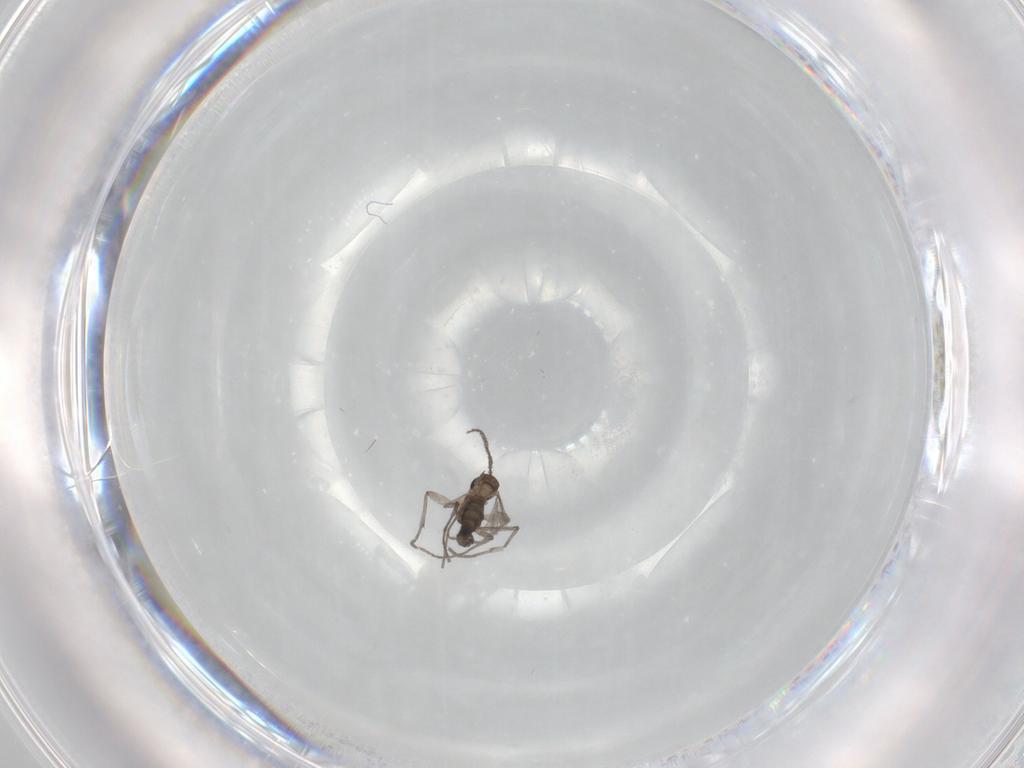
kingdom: Animalia
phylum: Arthropoda
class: Insecta
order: Diptera
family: Sciaridae
